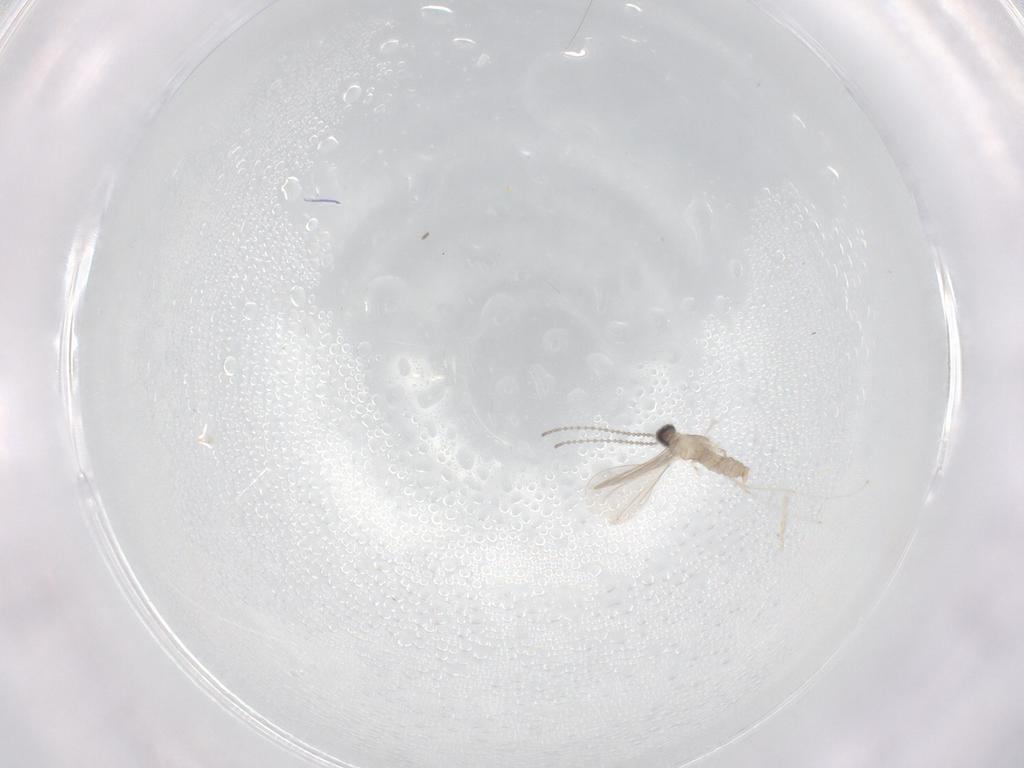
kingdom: Animalia
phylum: Arthropoda
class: Insecta
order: Diptera
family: Cecidomyiidae
